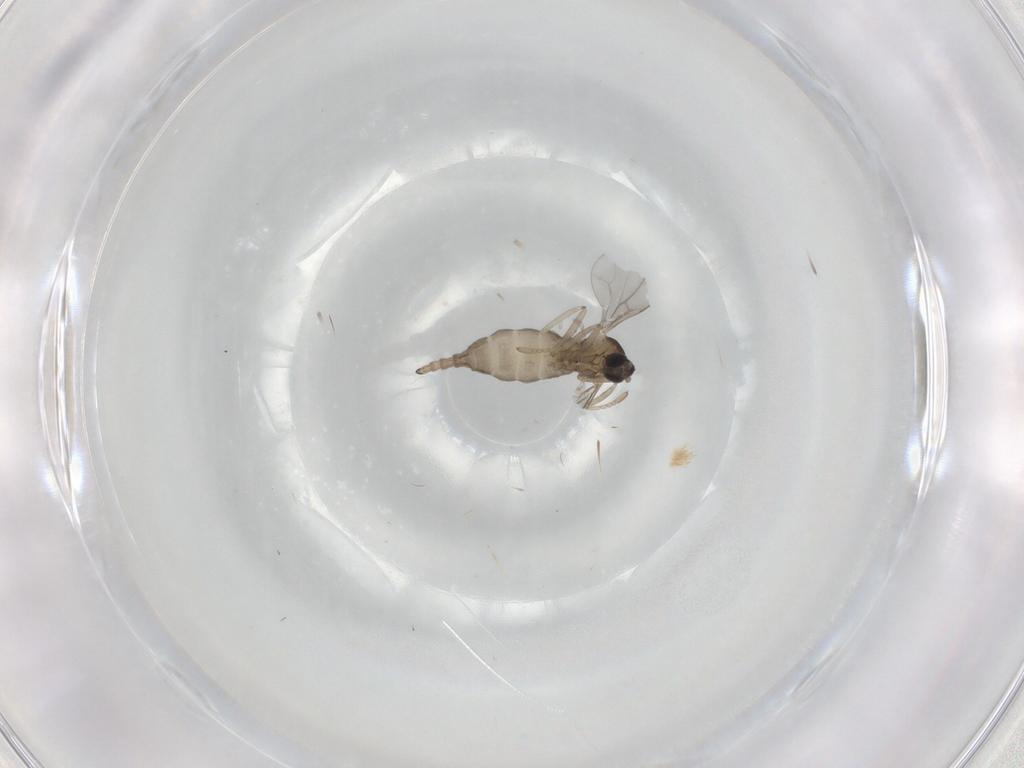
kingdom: Animalia
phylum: Arthropoda
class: Insecta
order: Diptera
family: Cecidomyiidae
